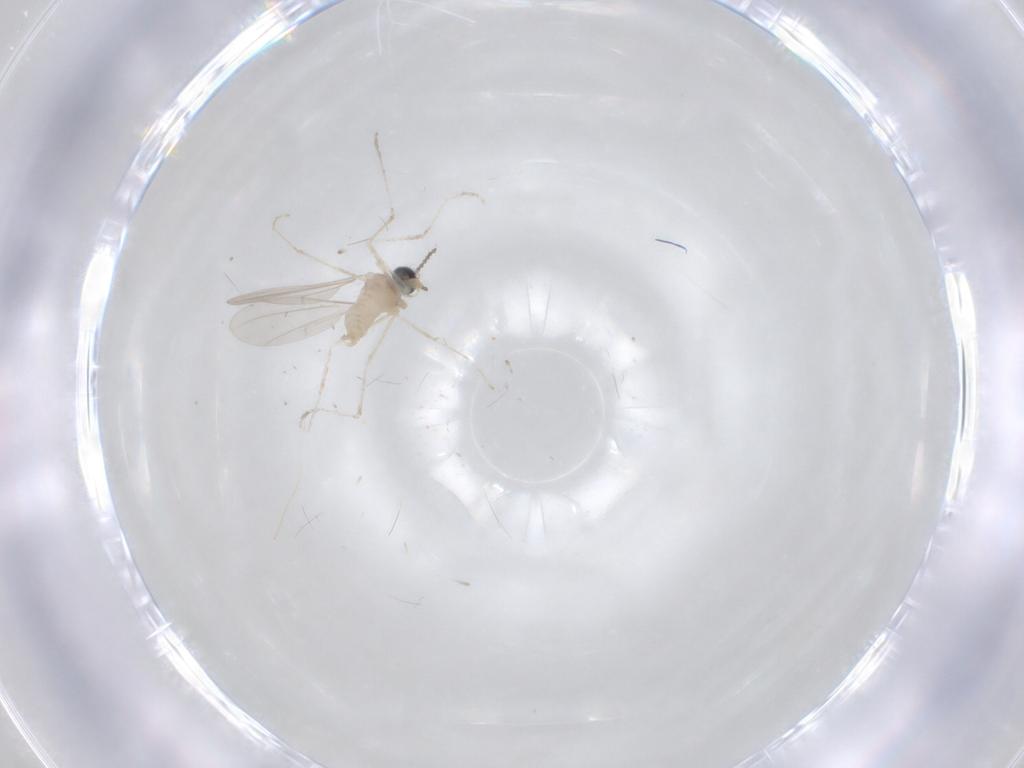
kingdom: Animalia
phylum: Arthropoda
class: Insecta
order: Diptera
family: Cecidomyiidae
